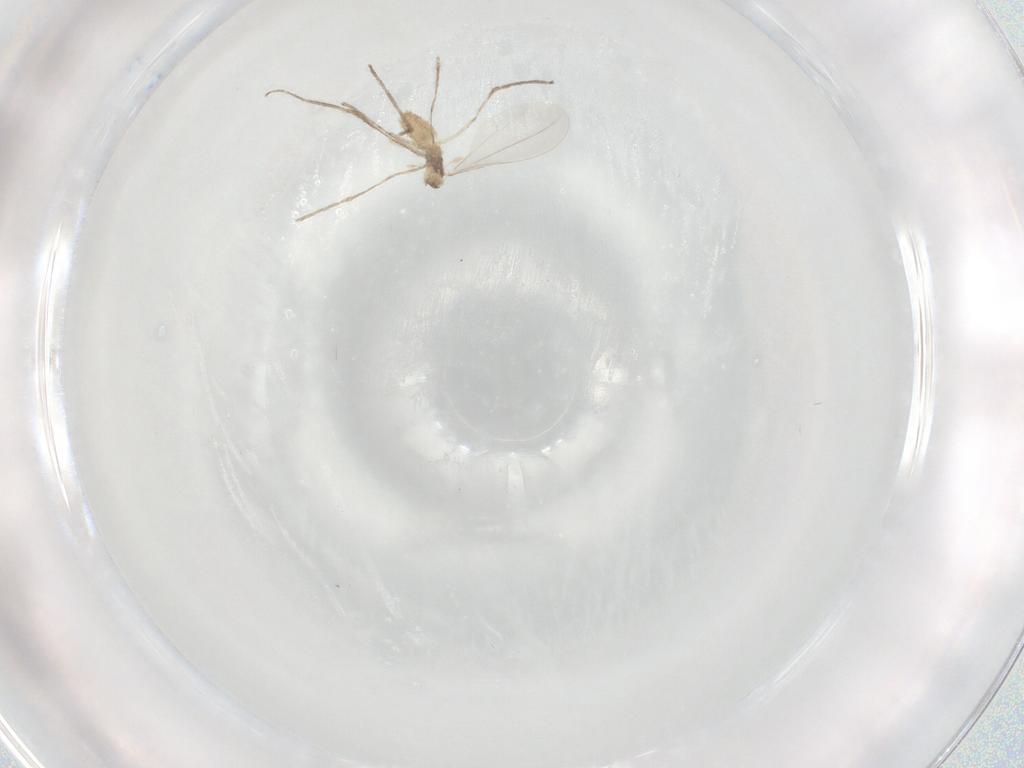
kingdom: Animalia
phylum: Arthropoda
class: Insecta
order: Diptera
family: Cecidomyiidae
